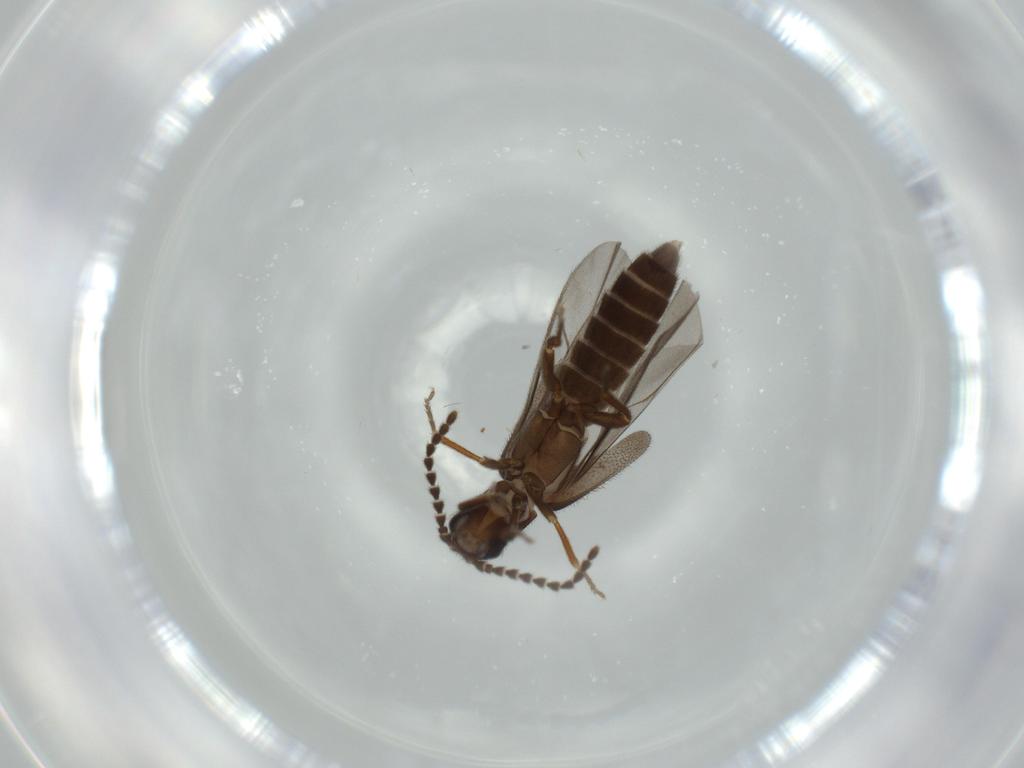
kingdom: Animalia
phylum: Arthropoda
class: Insecta
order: Coleoptera
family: Omethidae
